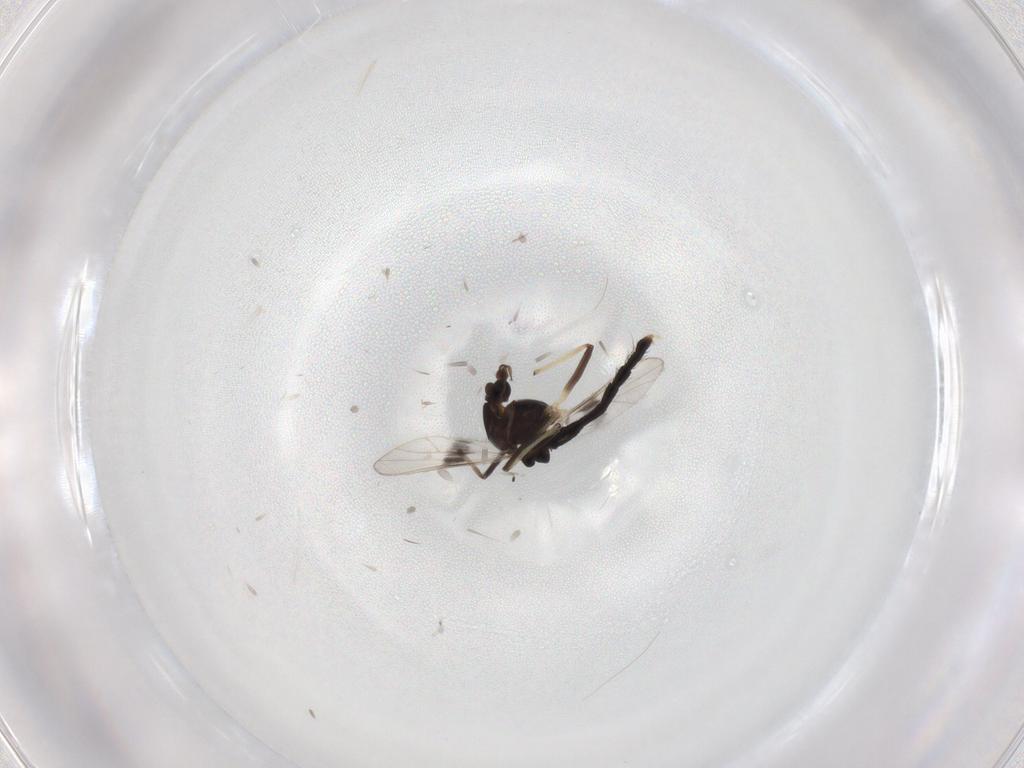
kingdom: Animalia
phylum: Arthropoda
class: Insecta
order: Diptera
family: Chironomidae
